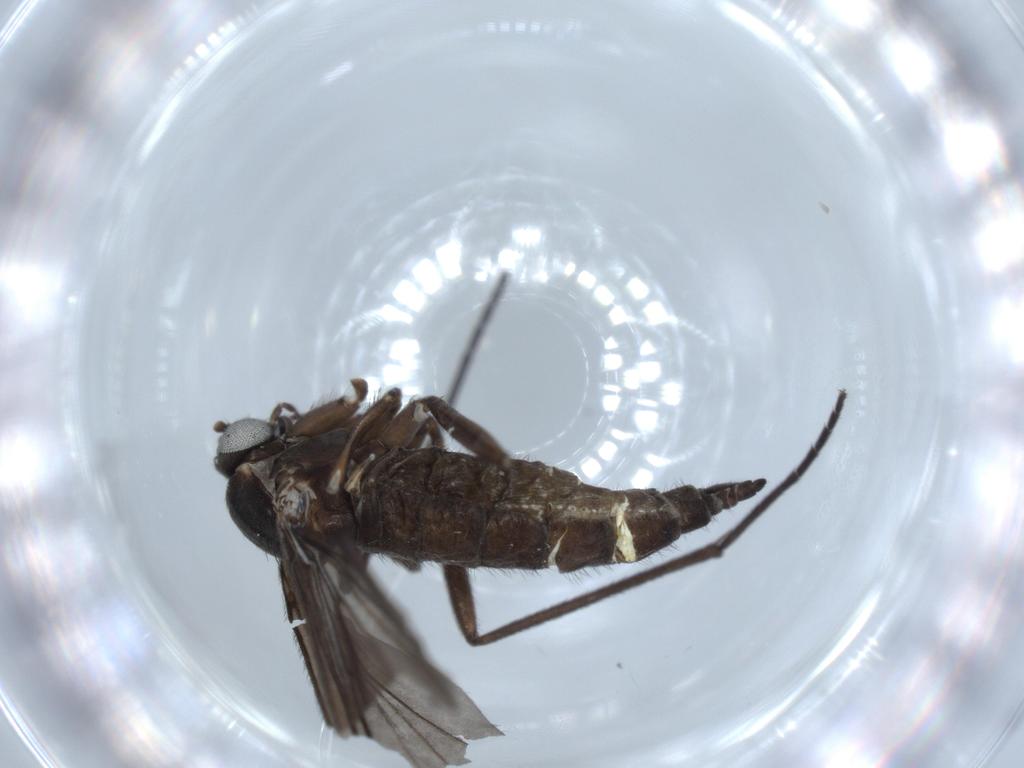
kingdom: Animalia
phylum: Arthropoda
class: Insecta
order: Diptera
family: Sciaridae
